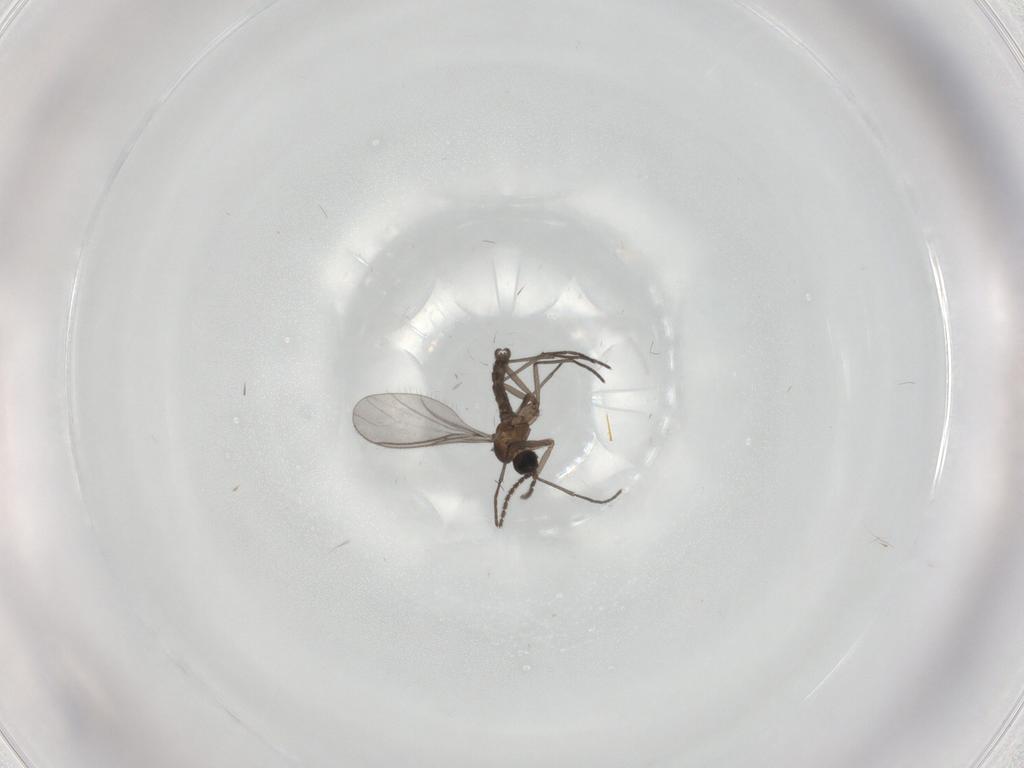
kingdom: Animalia
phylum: Arthropoda
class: Insecta
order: Diptera
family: Sciaridae
